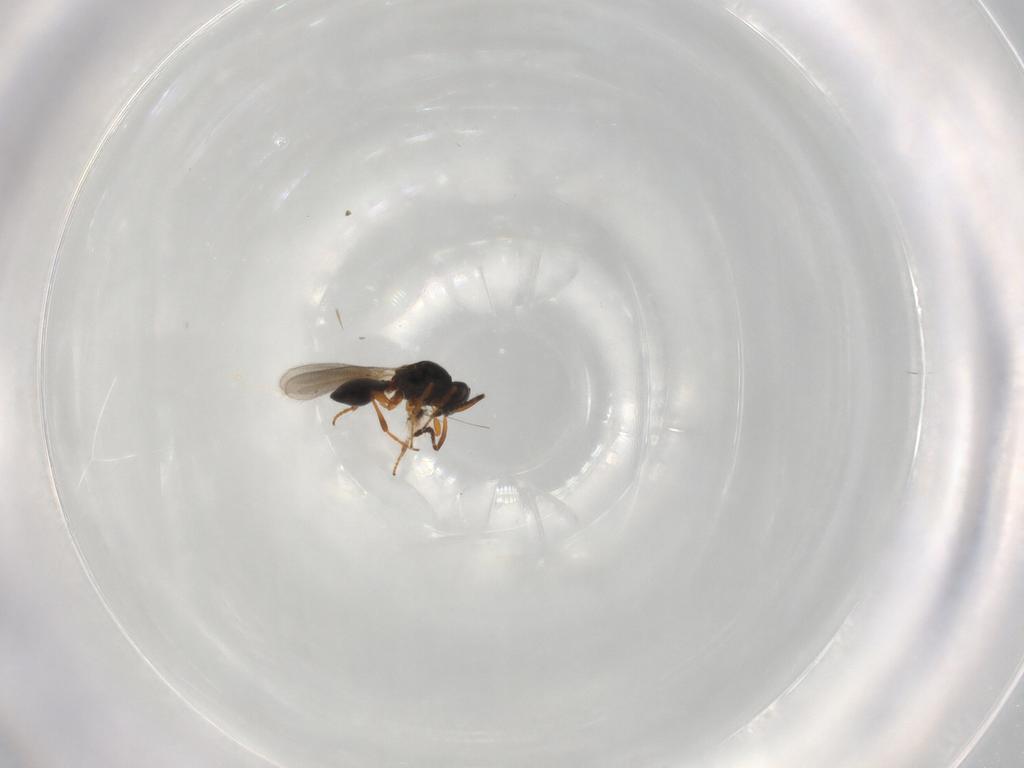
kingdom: Animalia
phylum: Arthropoda
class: Insecta
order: Hymenoptera
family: Platygastridae
